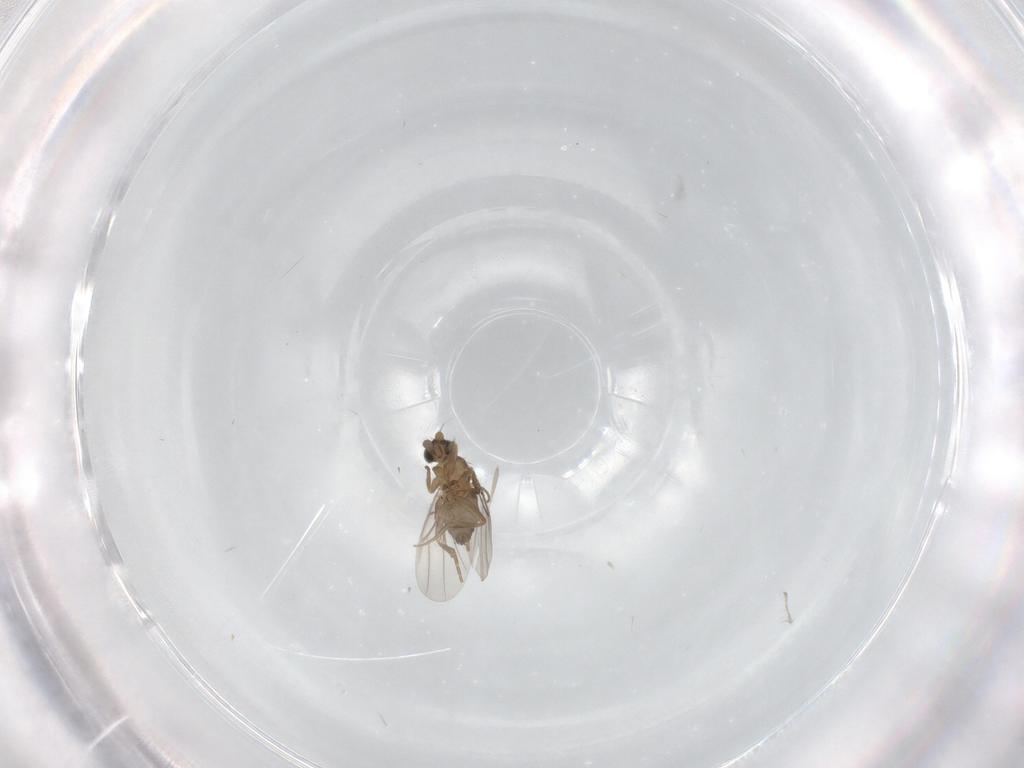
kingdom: Animalia
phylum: Arthropoda
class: Insecta
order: Diptera
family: Phoridae
